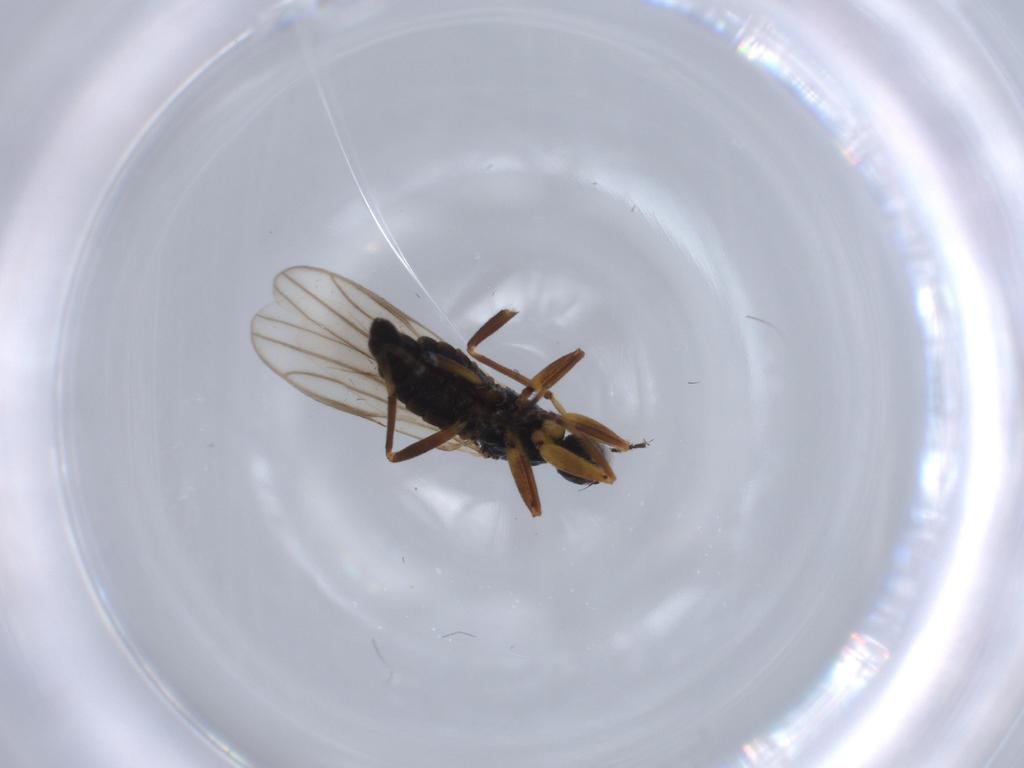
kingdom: Animalia
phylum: Arthropoda
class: Insecta
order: Diptera
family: Hybotidae
